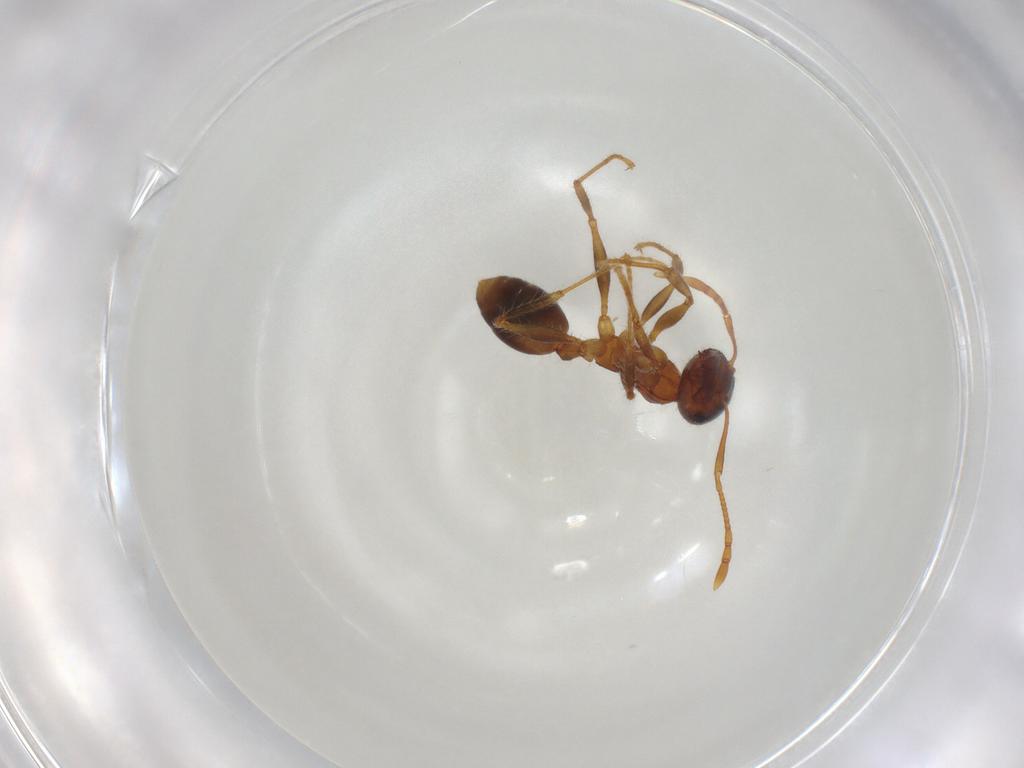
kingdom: Animalia
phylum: Arthropoda
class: Insecta
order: Hymenoptera
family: Formicidae
